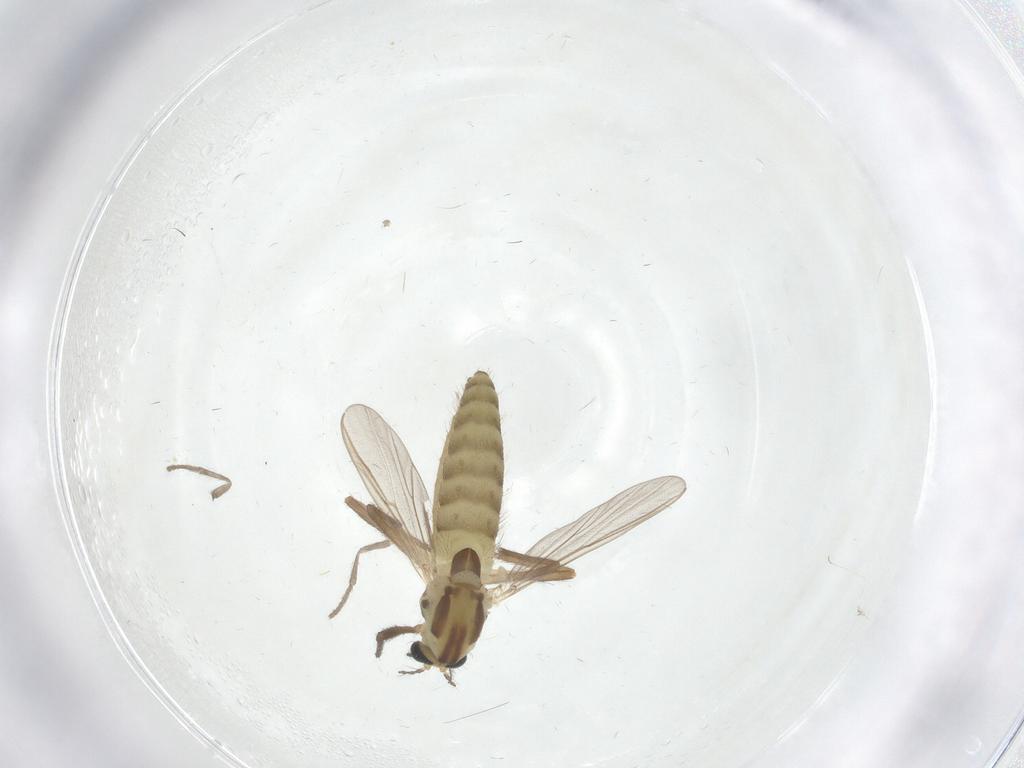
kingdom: Animalia
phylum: Arthropoda
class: Insecta
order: Diptera
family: Chironomidae
